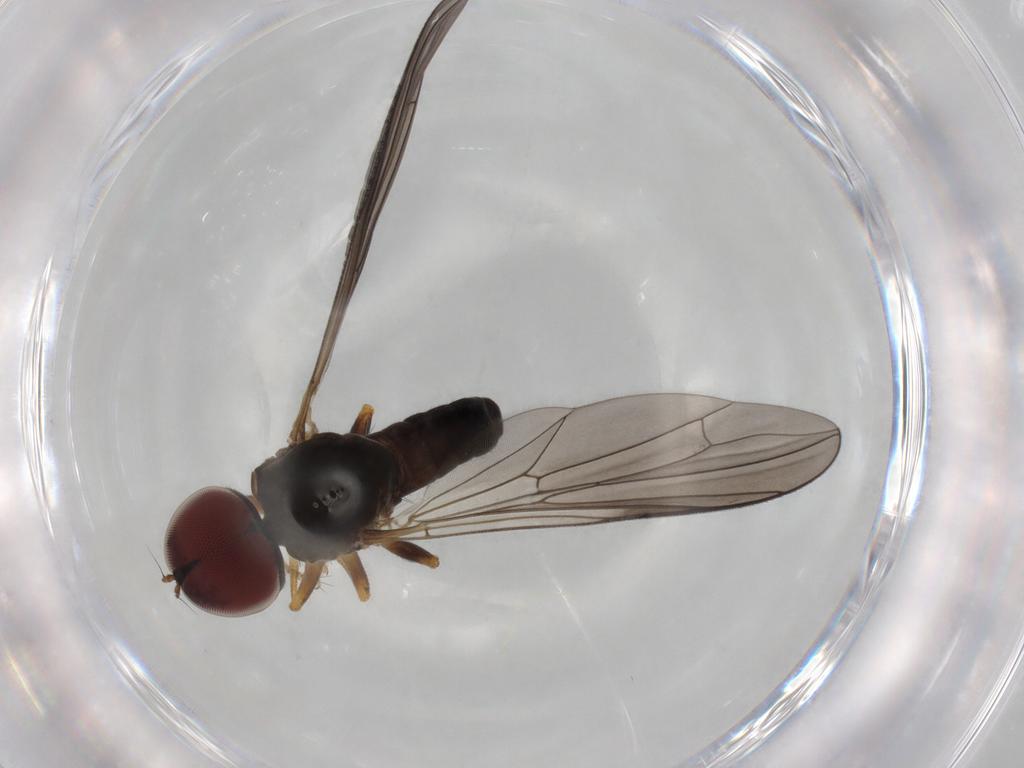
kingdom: Animalia
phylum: Arthropoda
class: Insecta
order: Diptera
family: Pipunculidae
